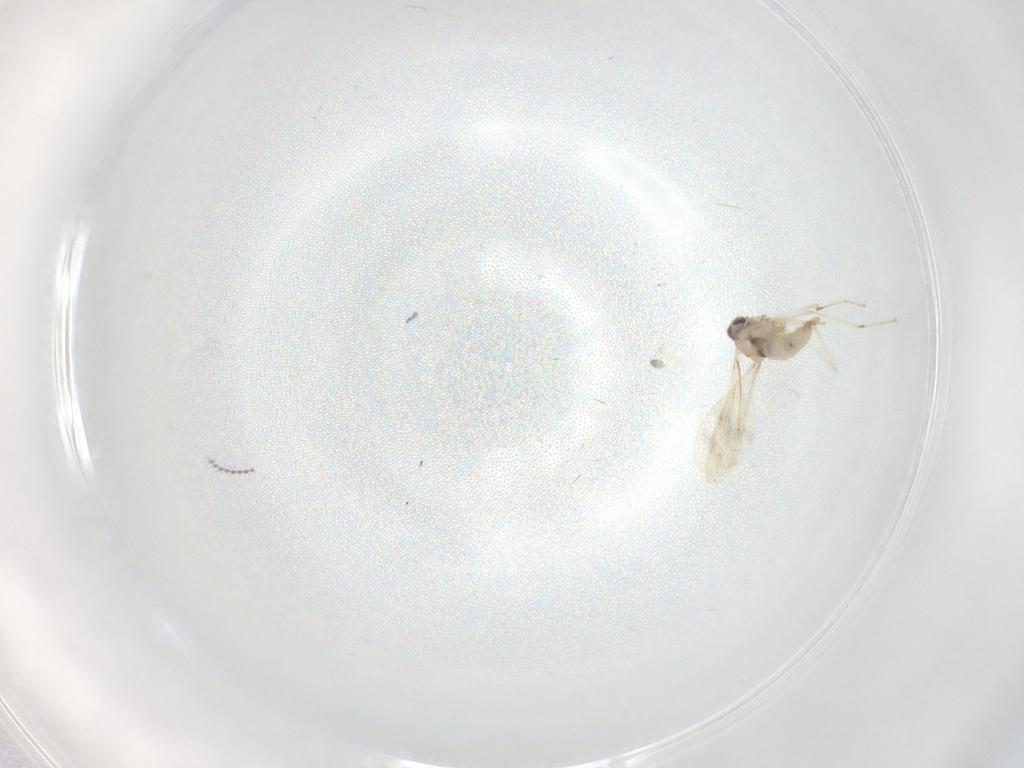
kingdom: Animalia
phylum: Arthropoda
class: Insecta
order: Diptera
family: Cecidomyiidae
